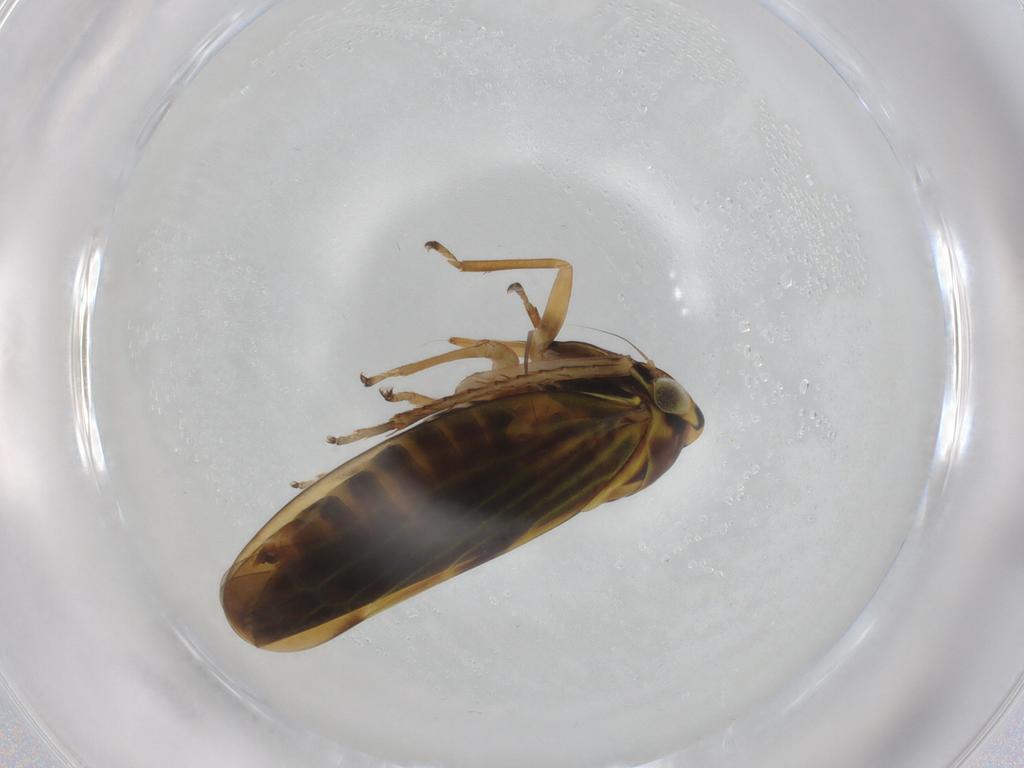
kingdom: Animalia
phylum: Arthropoda
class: Insecta
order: Hemiptera
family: Cicadellidae
